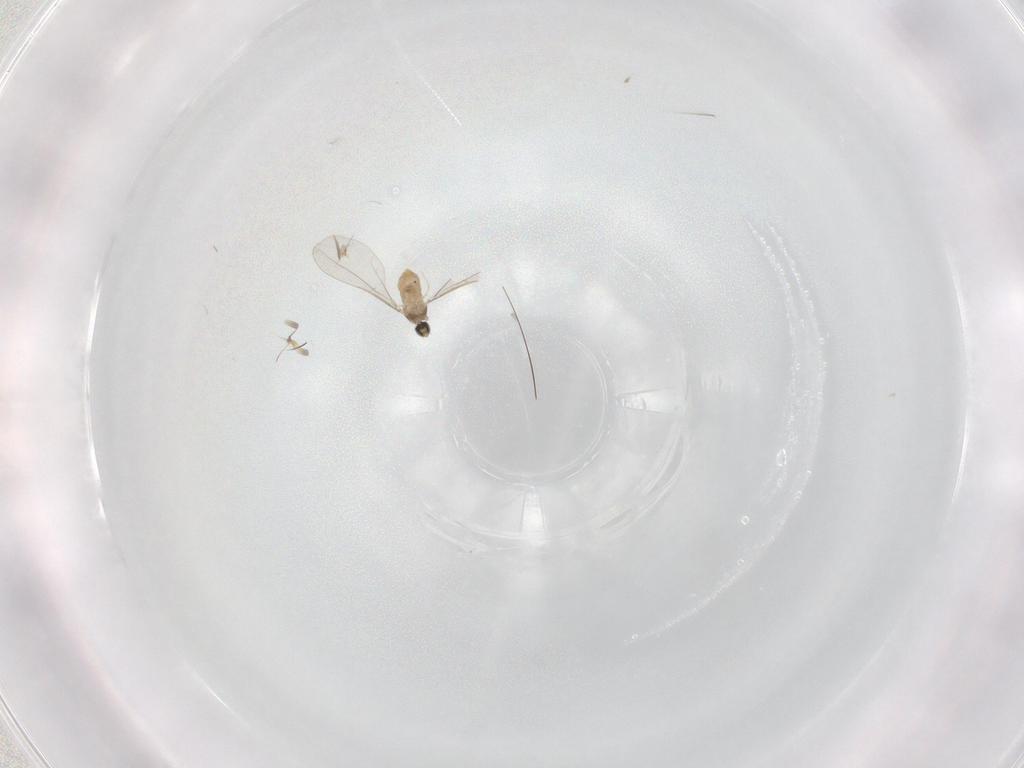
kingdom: Animalia
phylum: Arthropoda
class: Insecta
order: Diptera
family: Cecidomyiidae
